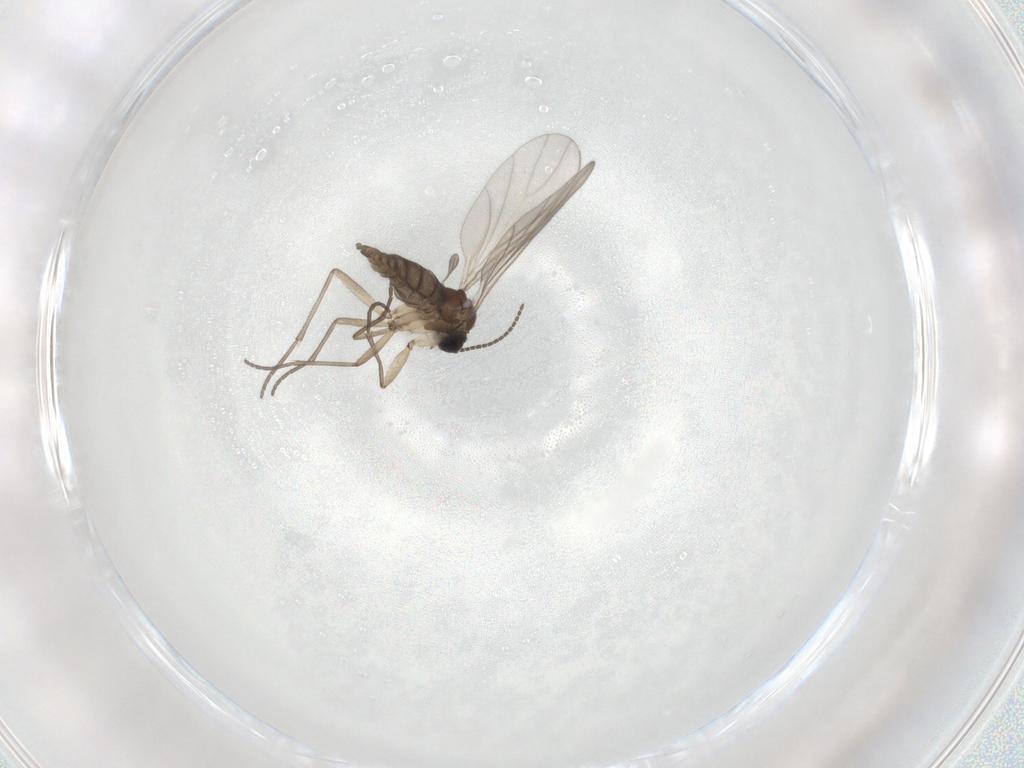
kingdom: Animalia
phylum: Arthropoda
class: Insecta
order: Diptera
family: Sciaridae
